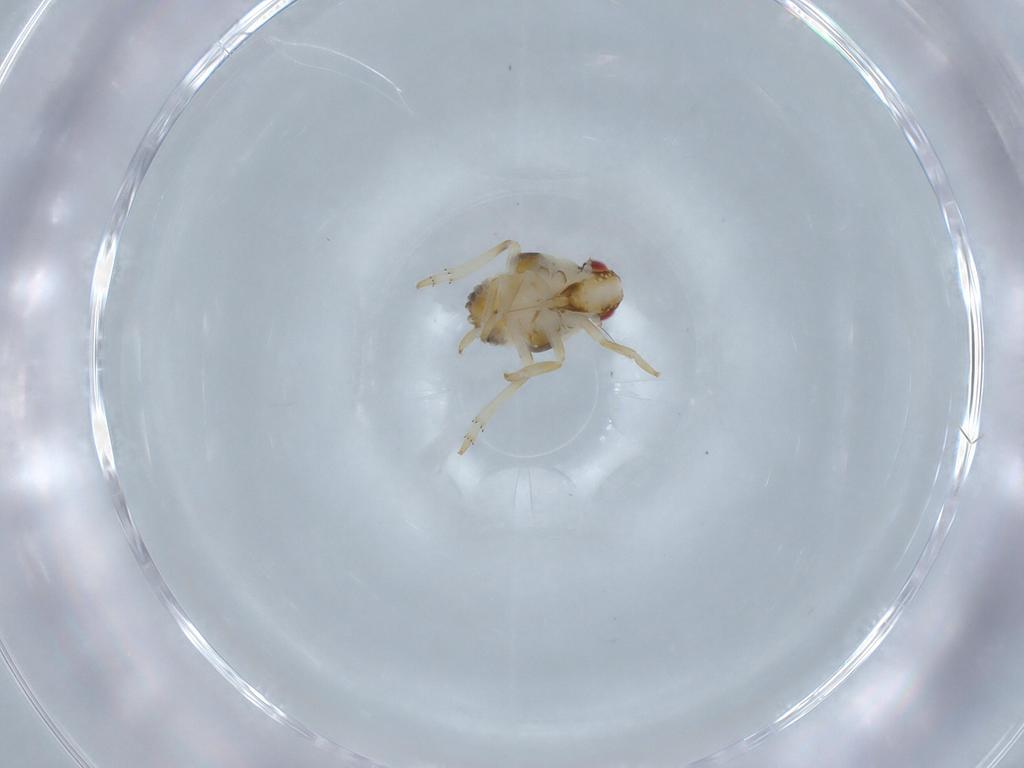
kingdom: Animalia
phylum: Arthropoda
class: Insecta
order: Hemiptera
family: Issidae
